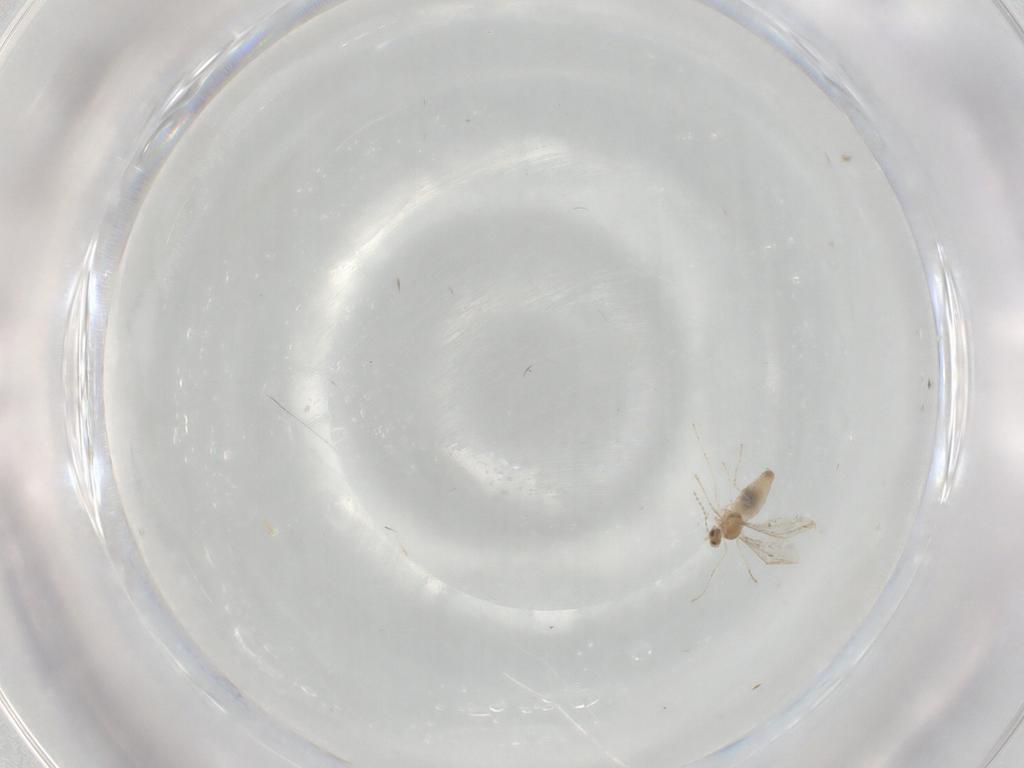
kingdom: Animalia
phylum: Arthropoda
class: Insecta
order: Diptera
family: Cecidomyiidae
